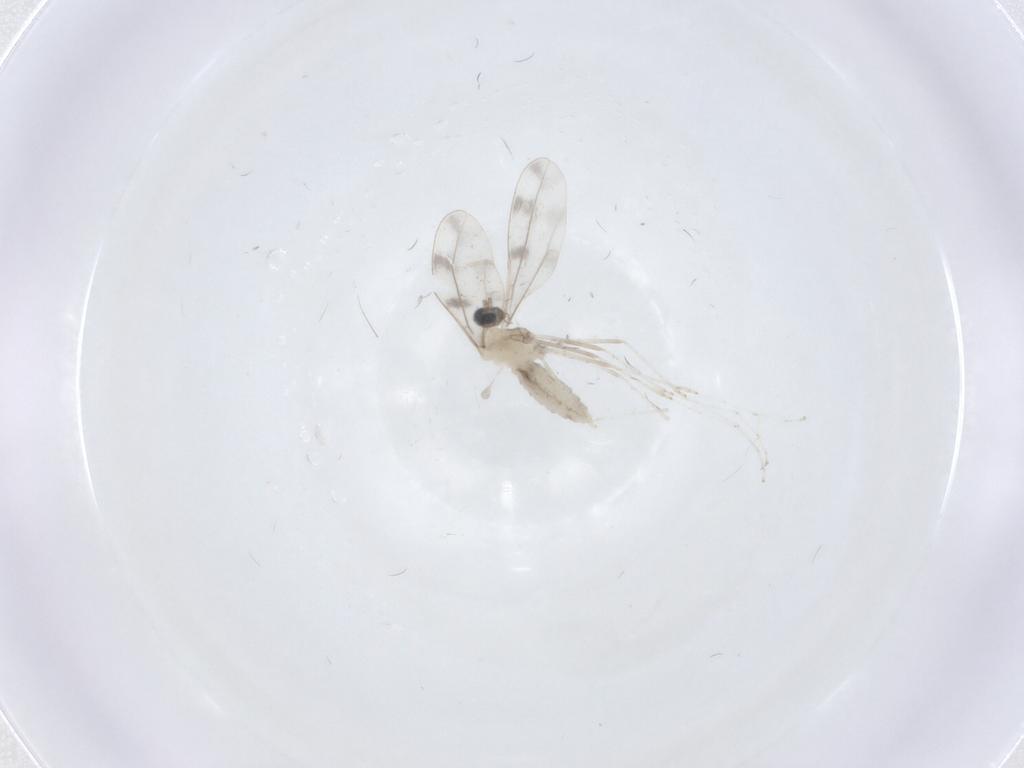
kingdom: Animalia
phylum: Arthropoda
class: Insecta
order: Diptera
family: Cecidomyiidae
